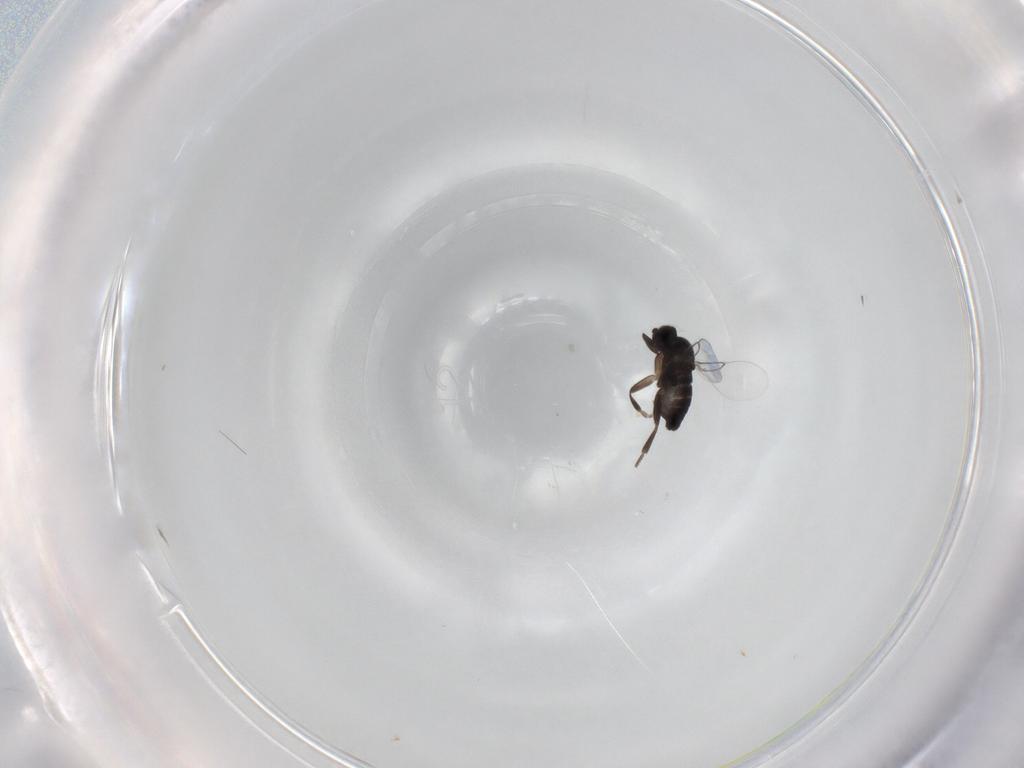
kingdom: Animalia
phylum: Arthropoda
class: Insecta
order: Diptera
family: Phoridae
